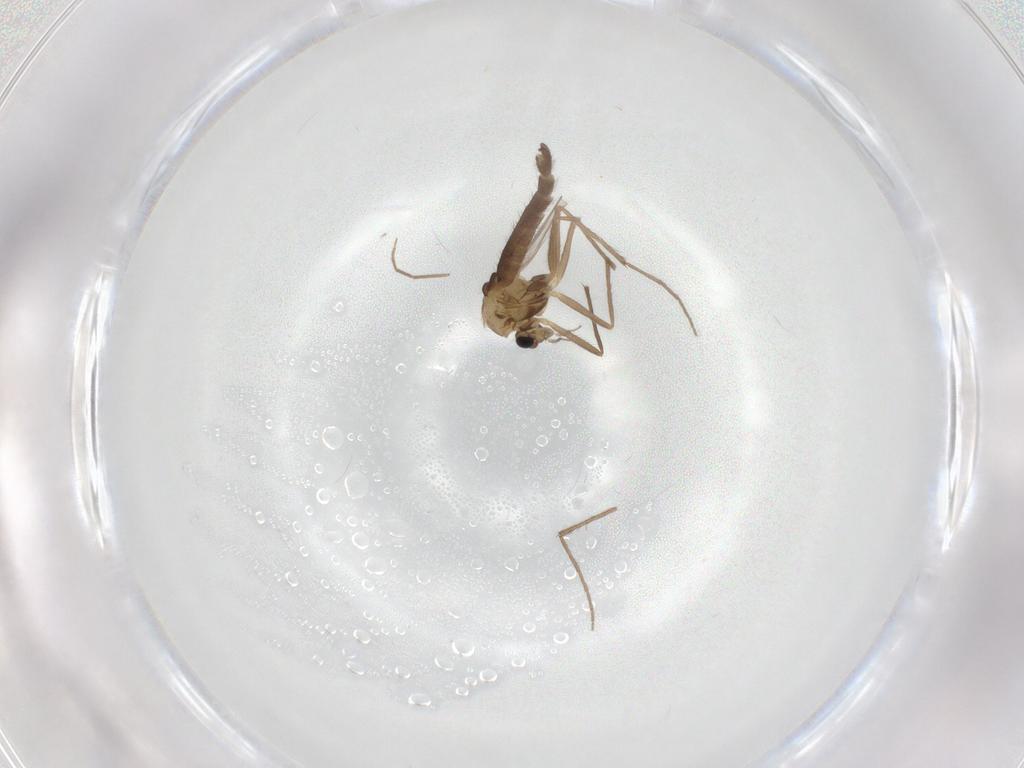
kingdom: Animalia
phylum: Arthropoda
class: Insecta
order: Diptera
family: Chironomidae
